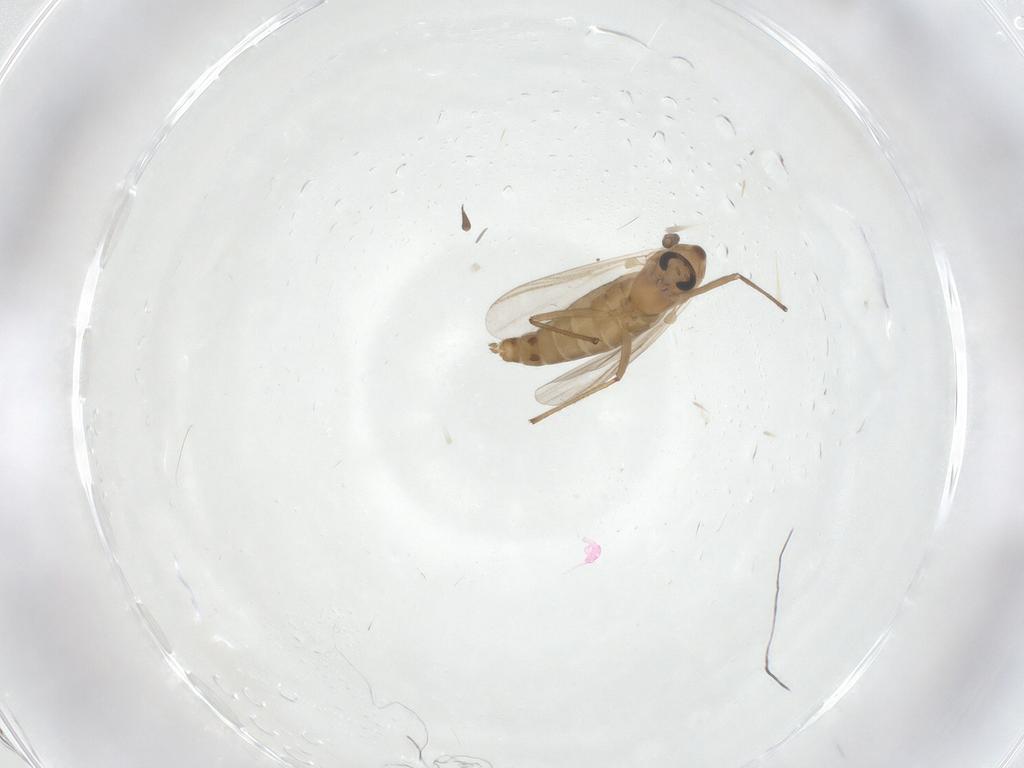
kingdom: Animalia
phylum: Arthropoda
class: Insecta
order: Diptera
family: Chironomidae
